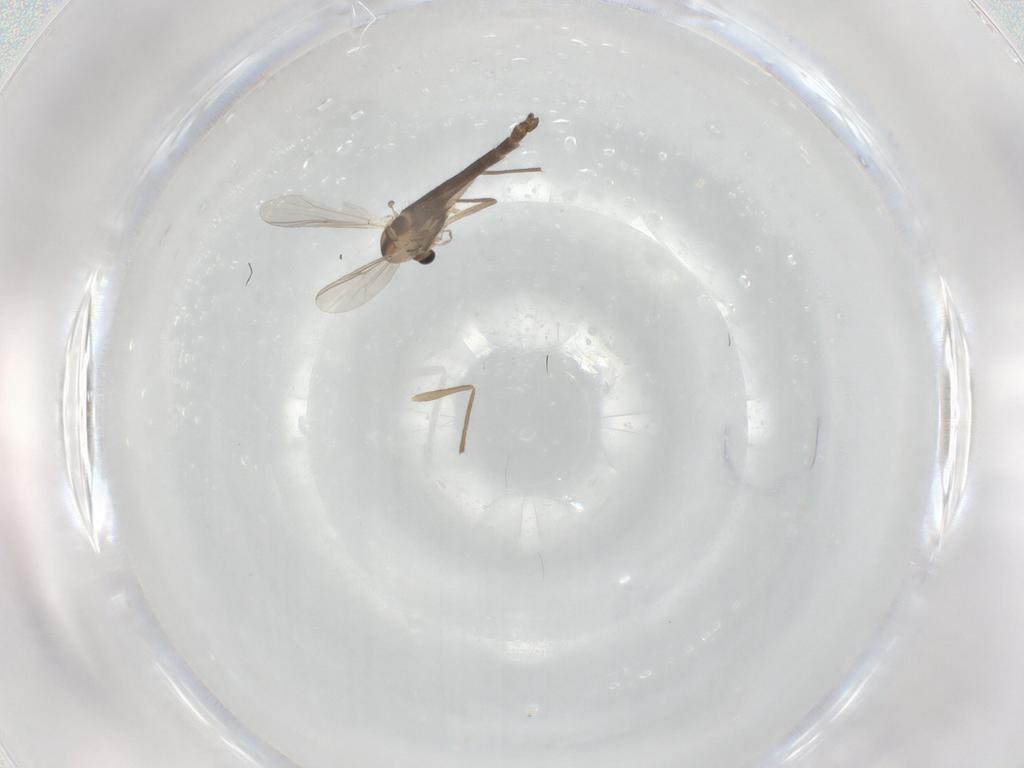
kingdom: Animalia
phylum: Arthropoda
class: Insecta
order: Diptera
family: Chironomidae
